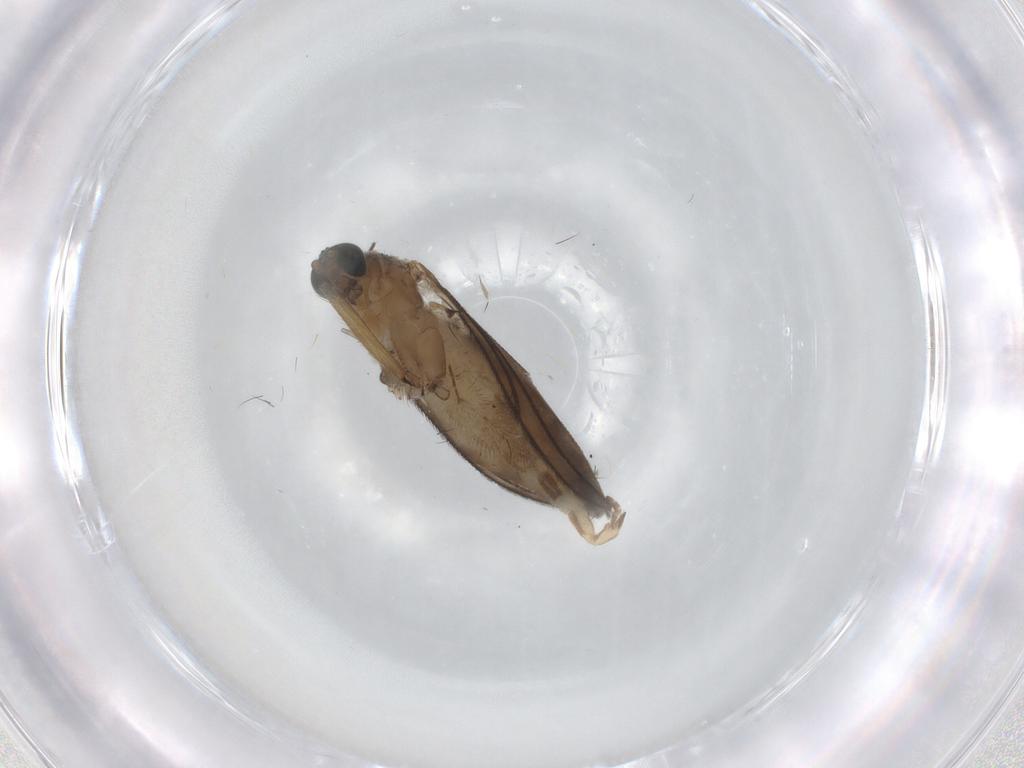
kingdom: Animalia
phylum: Arthropoda
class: Insecta
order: Diptera
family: Sciaridae
